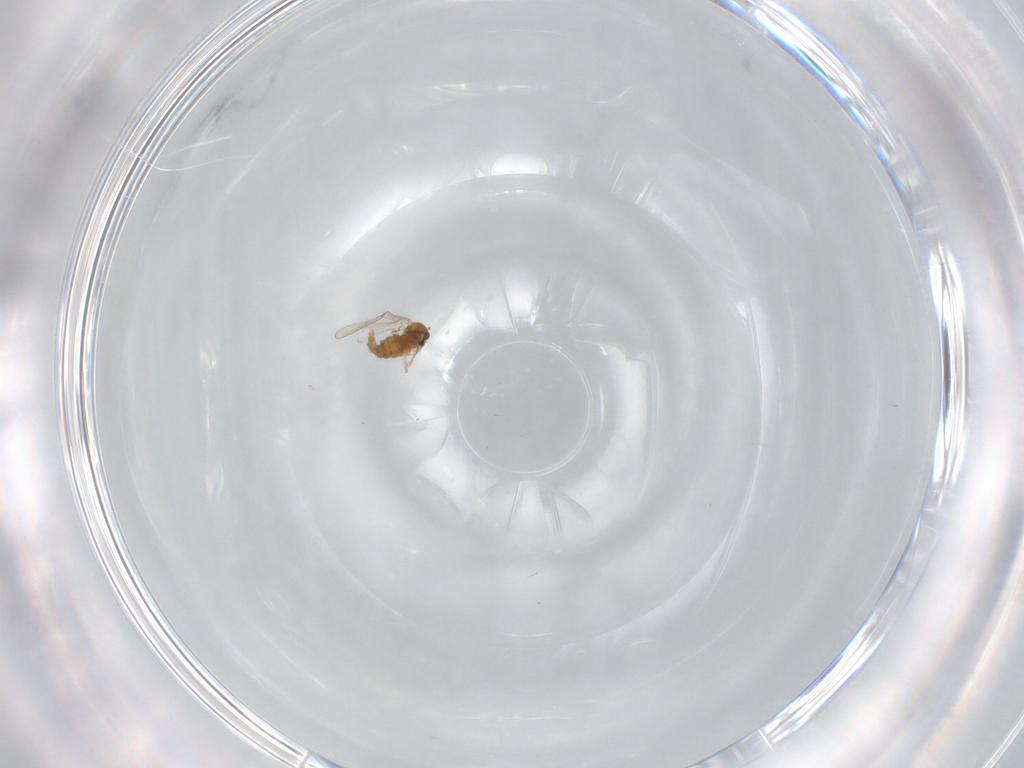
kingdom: Animalia
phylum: Arthropoda
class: Insecta
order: Diptera
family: Cecidomyiidae
